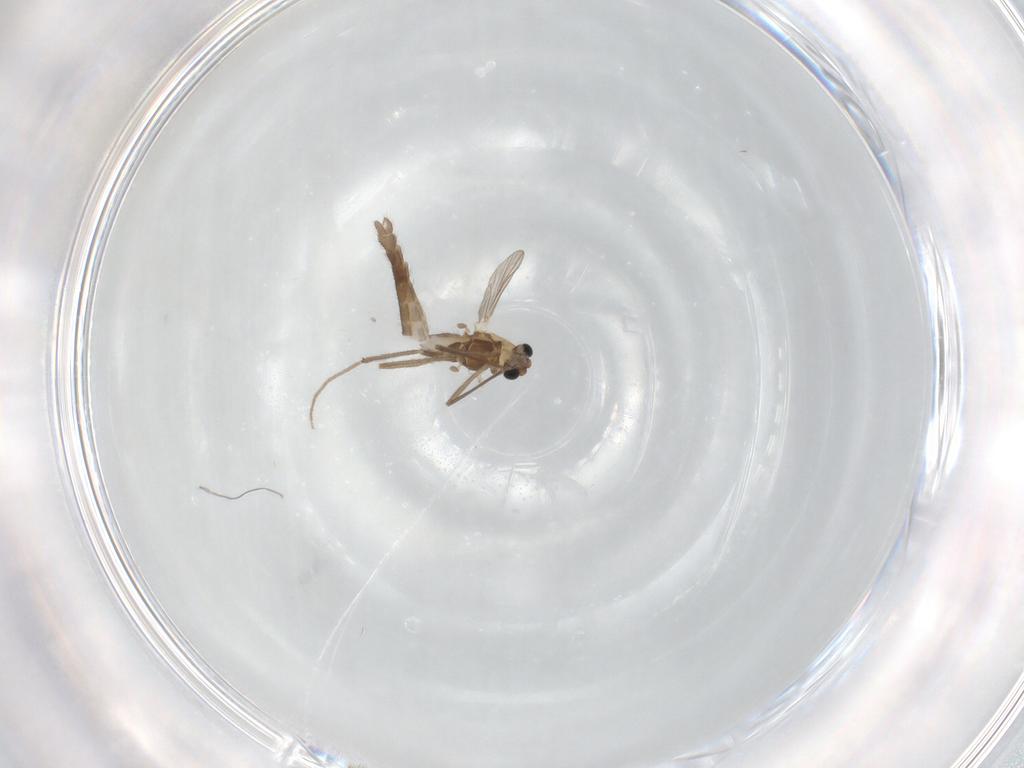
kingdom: Animalia
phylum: Arthropoda
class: Insecta
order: Diptera
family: Chironomidae
